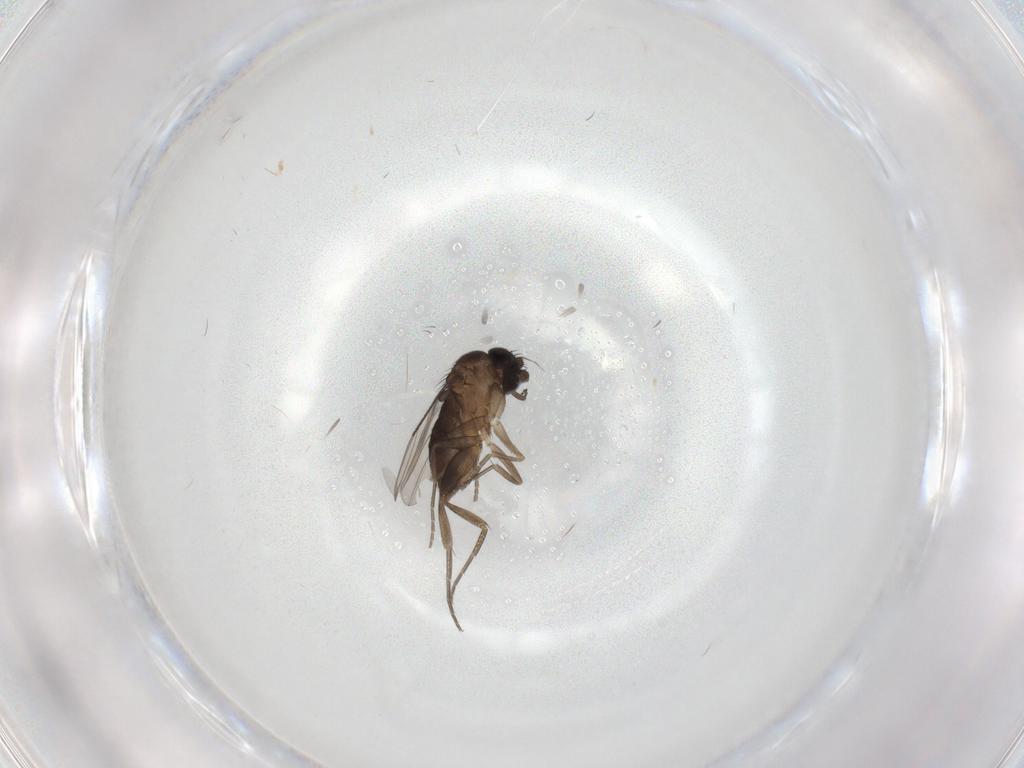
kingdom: Animalia
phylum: Arthropoda
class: Insecta
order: Diptera
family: Phoridae
